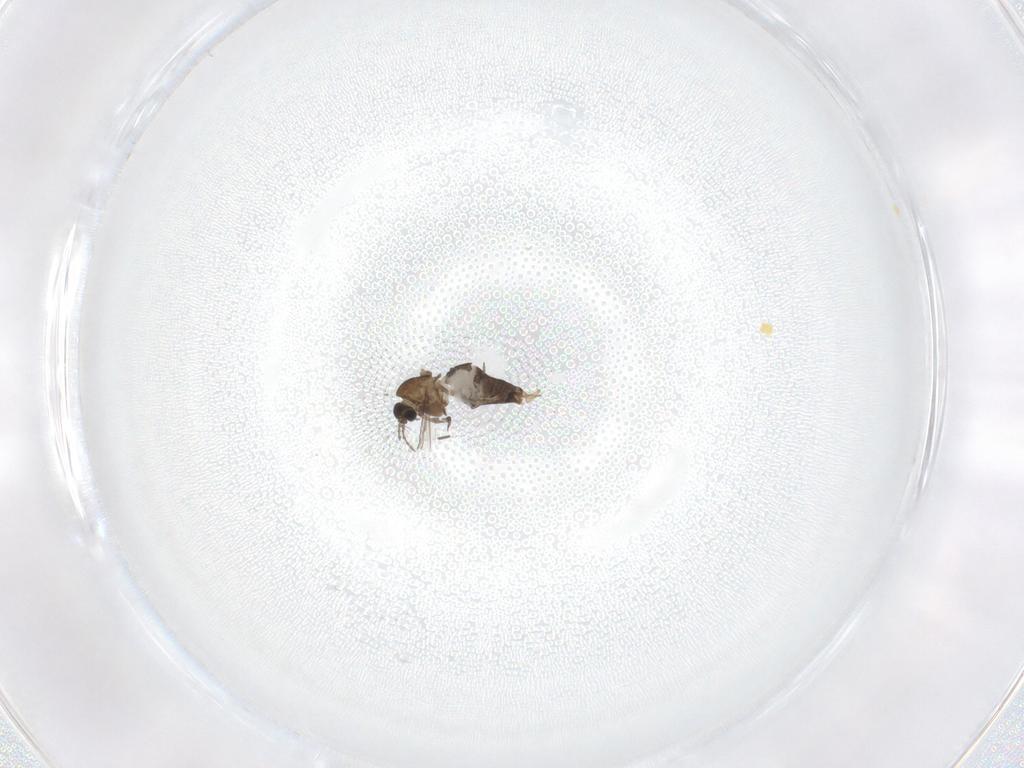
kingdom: Animalia
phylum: Arthropoda
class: Insecta
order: Diptera
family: Chironomidae
